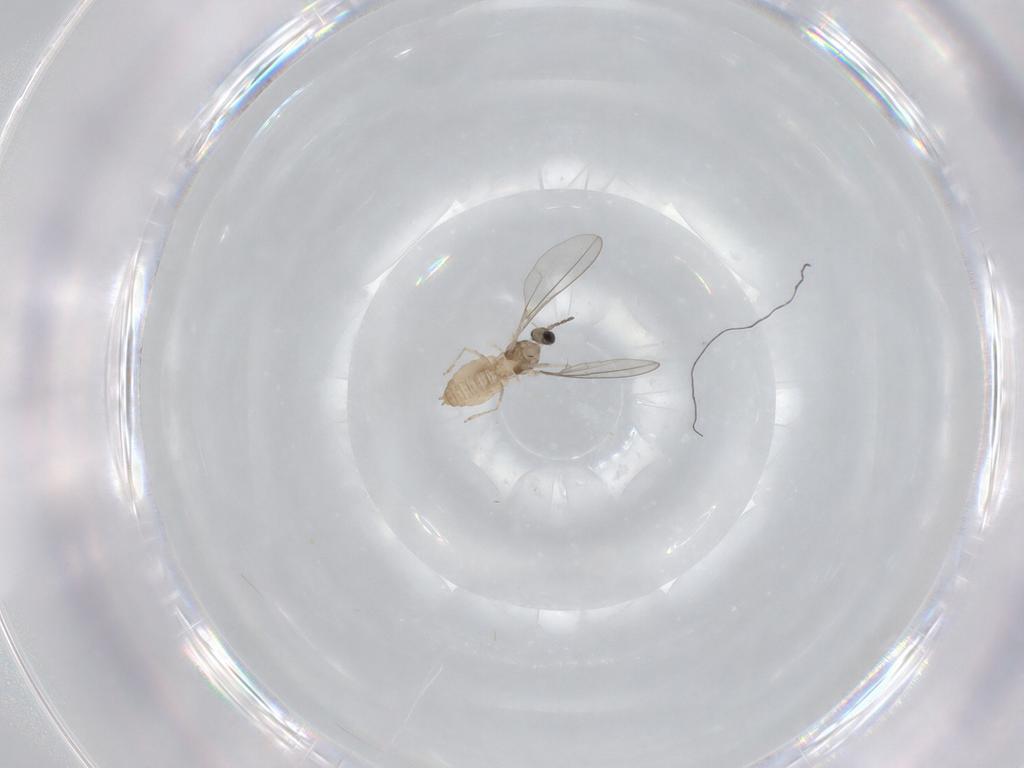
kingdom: Animalia
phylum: Arthropoda
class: Insecta
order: Diptera
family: Cecidomyiidae
